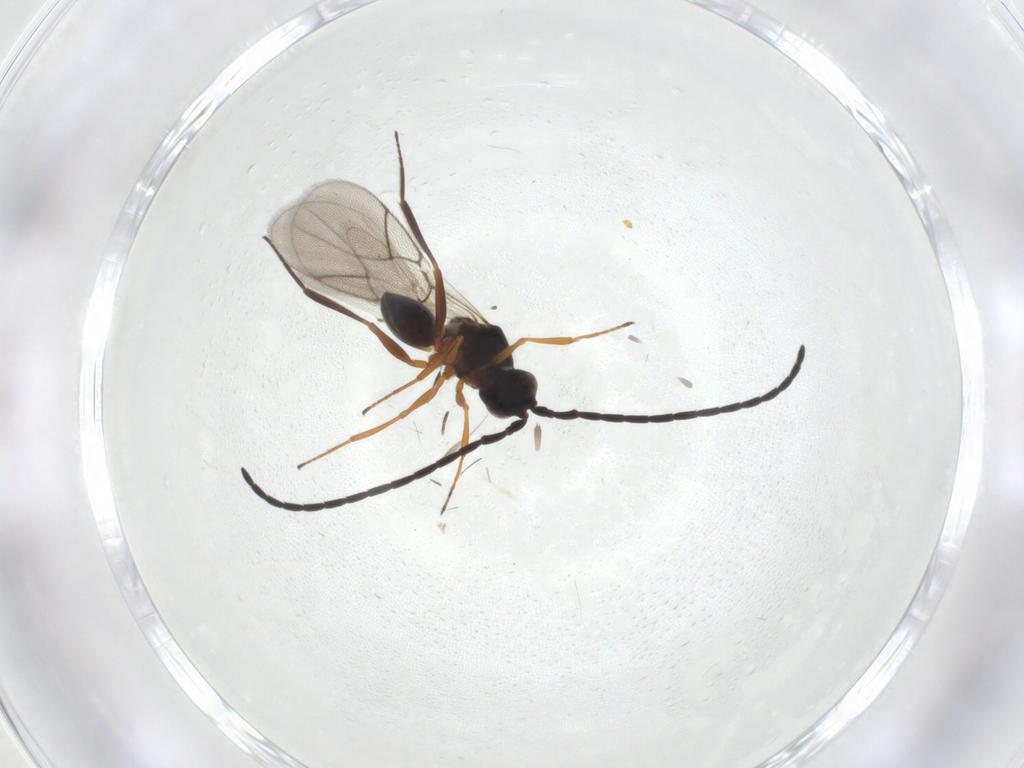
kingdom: Animalia
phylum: Arthropoda
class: Insecta
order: Hymenoptera
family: Figitidae
